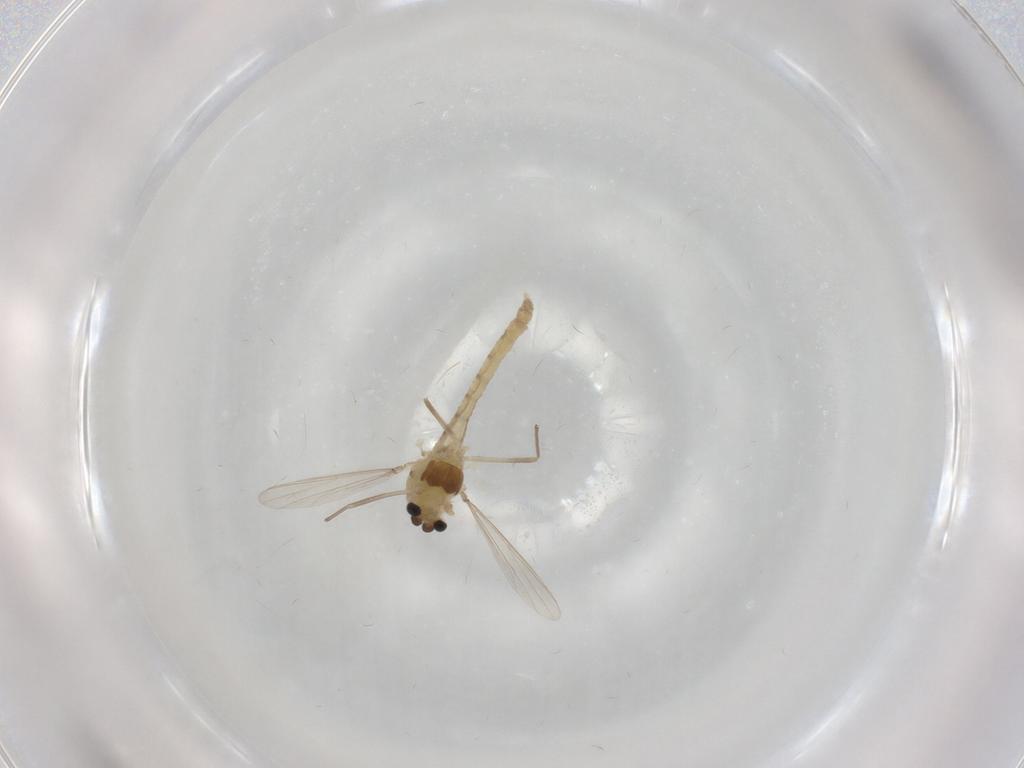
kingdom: Animalia
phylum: Arthropoda
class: Insecta
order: Diptera
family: Chironomidae
